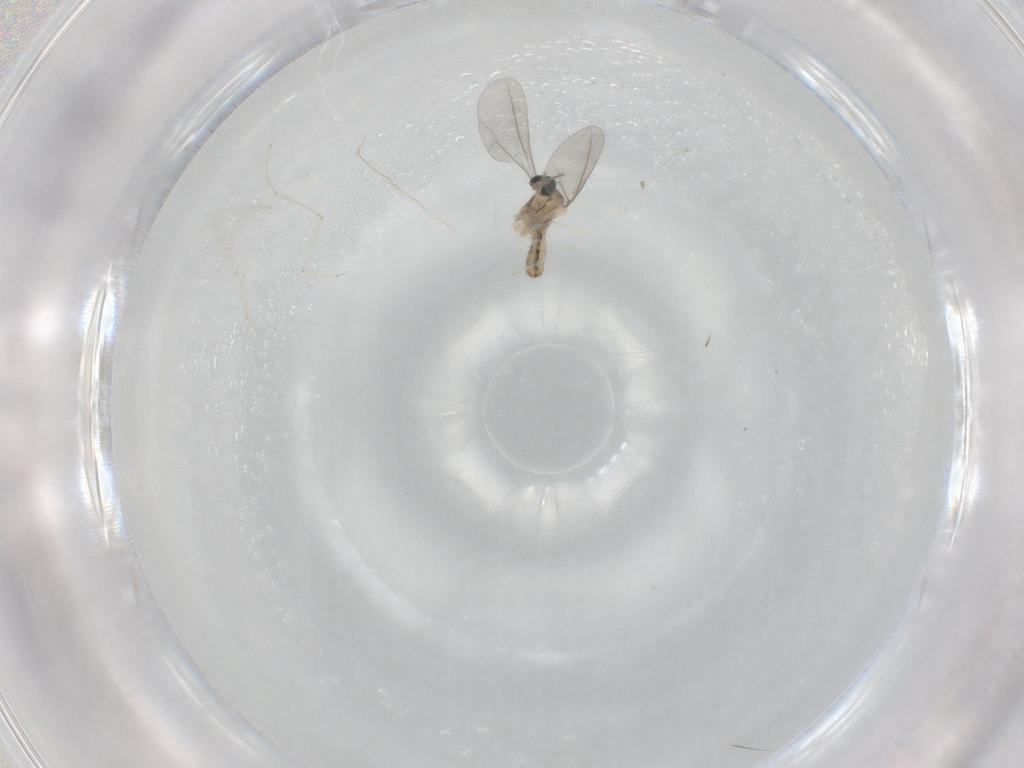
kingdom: Animalia
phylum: Arthropoda
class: Insecta
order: Diptera
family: Cecidomyiidae
